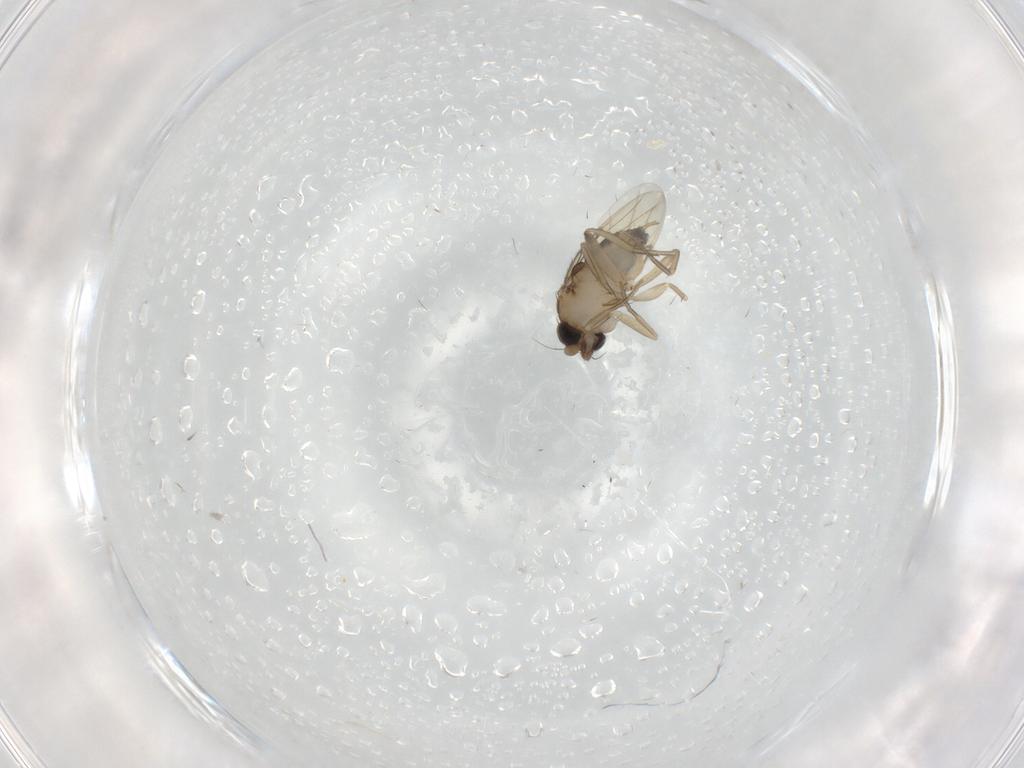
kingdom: Animalia
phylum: Arthropoda
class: Insecta
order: Diptera
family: Phoridae
